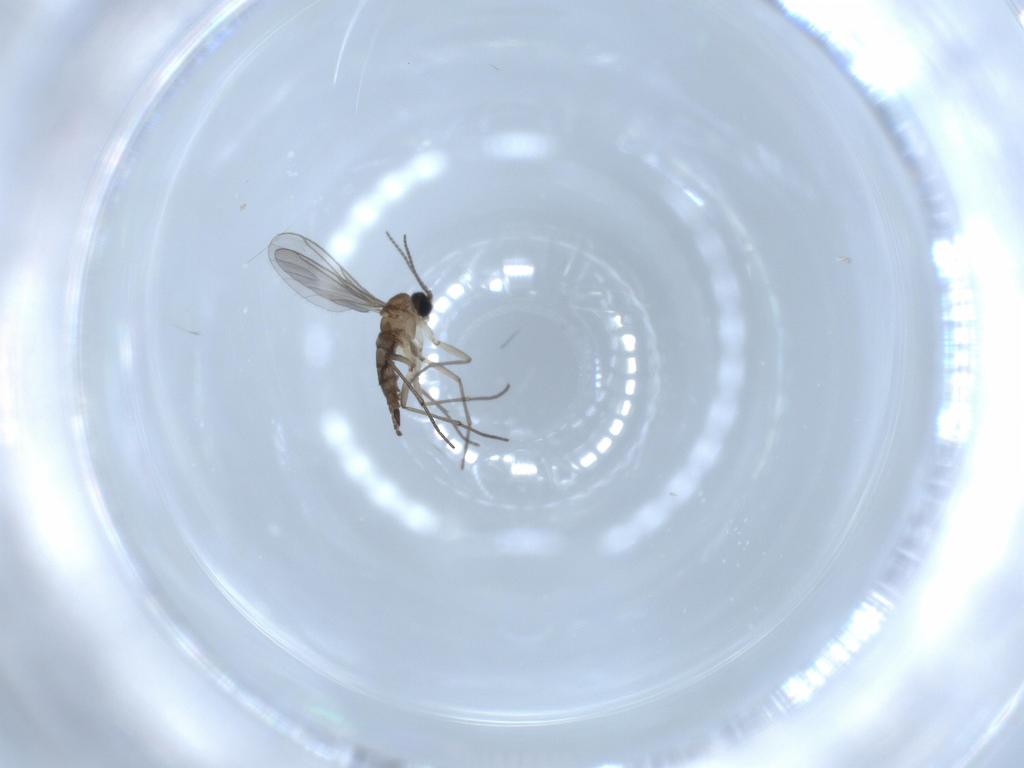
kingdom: Animalia
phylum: Arthropoda
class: Insecta
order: Diptera
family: Sciaridae
